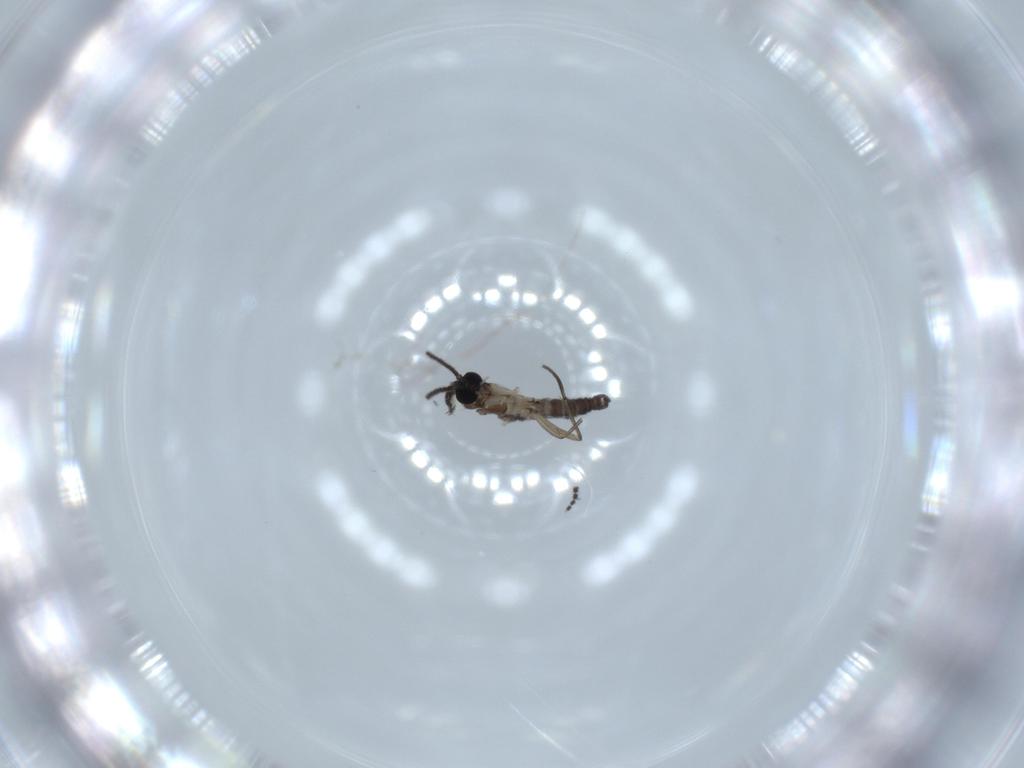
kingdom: Animalia
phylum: Arthropoda
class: Insecta
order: Diptera
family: Sciaridae
